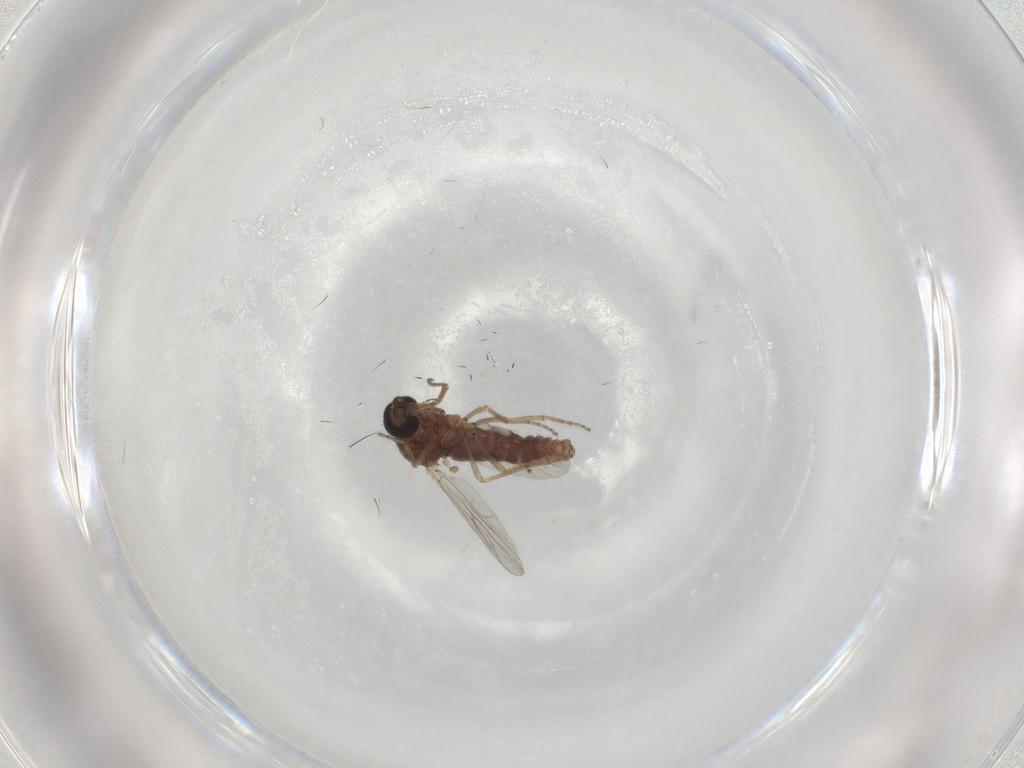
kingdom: Animalia
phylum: Arthropoda
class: Insecta
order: Diptera
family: Ceratopogonidae
